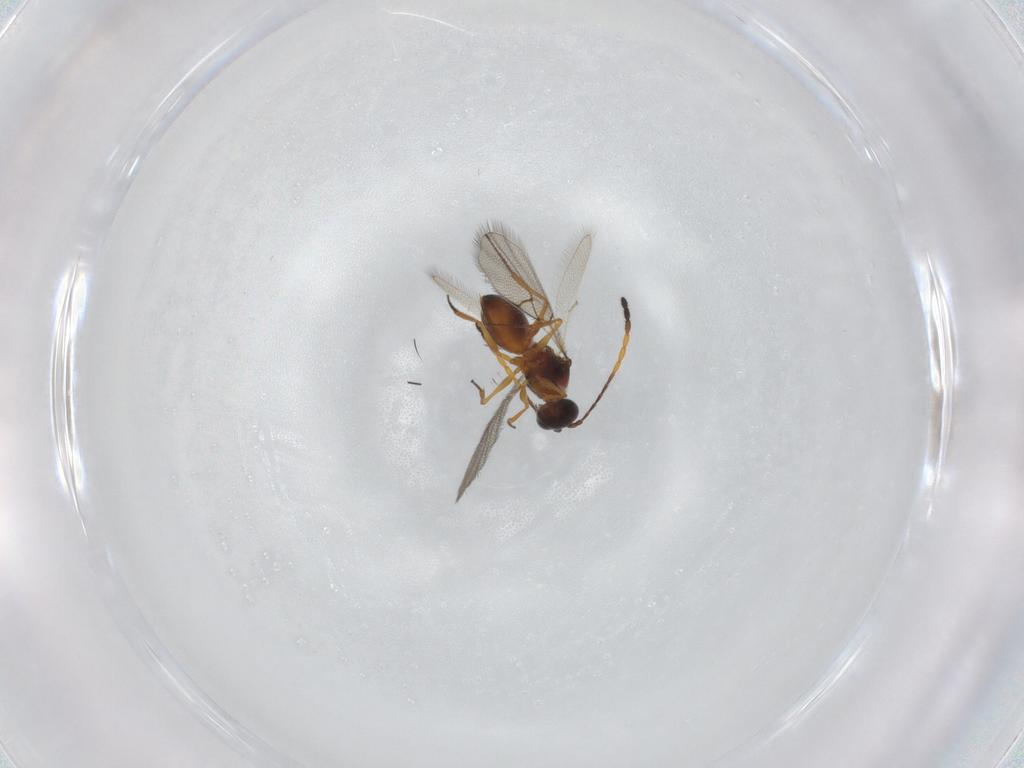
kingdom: Animalia
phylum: Arthropoda
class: Insecta
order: Hymenoptera
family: Figitidae
